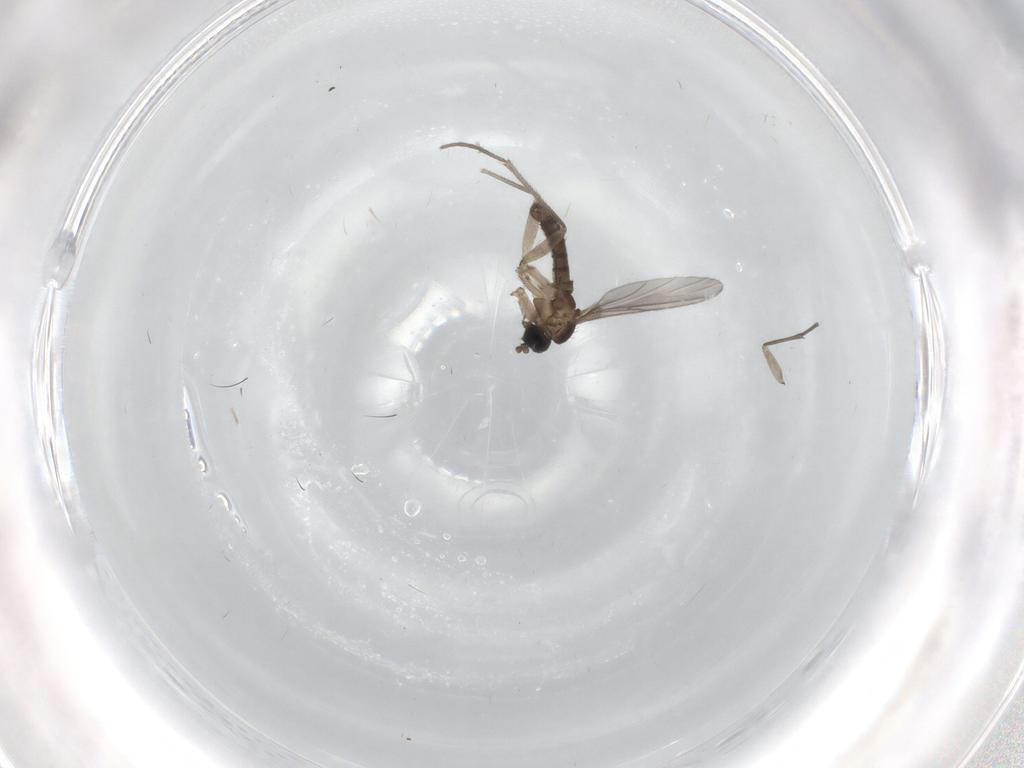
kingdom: Animalia
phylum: Arthropoda
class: Insecta
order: Diptera
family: Sciaridae
